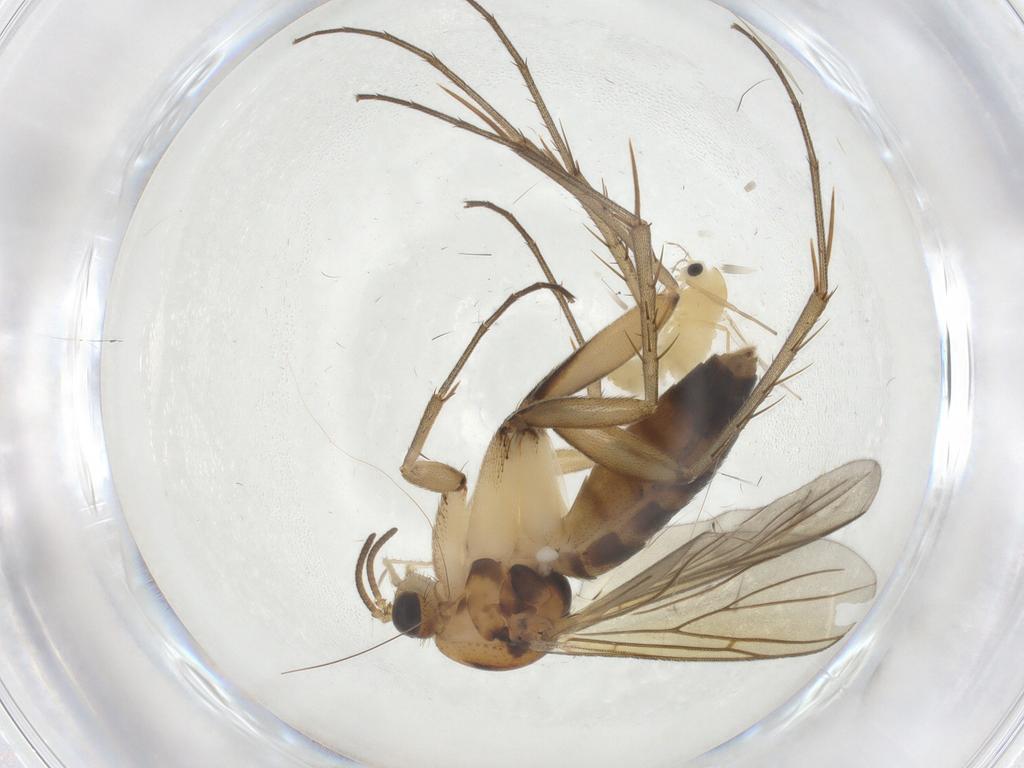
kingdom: Animalia
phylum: Arthropoda
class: Insecta
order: Diptera
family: Chironomidae
